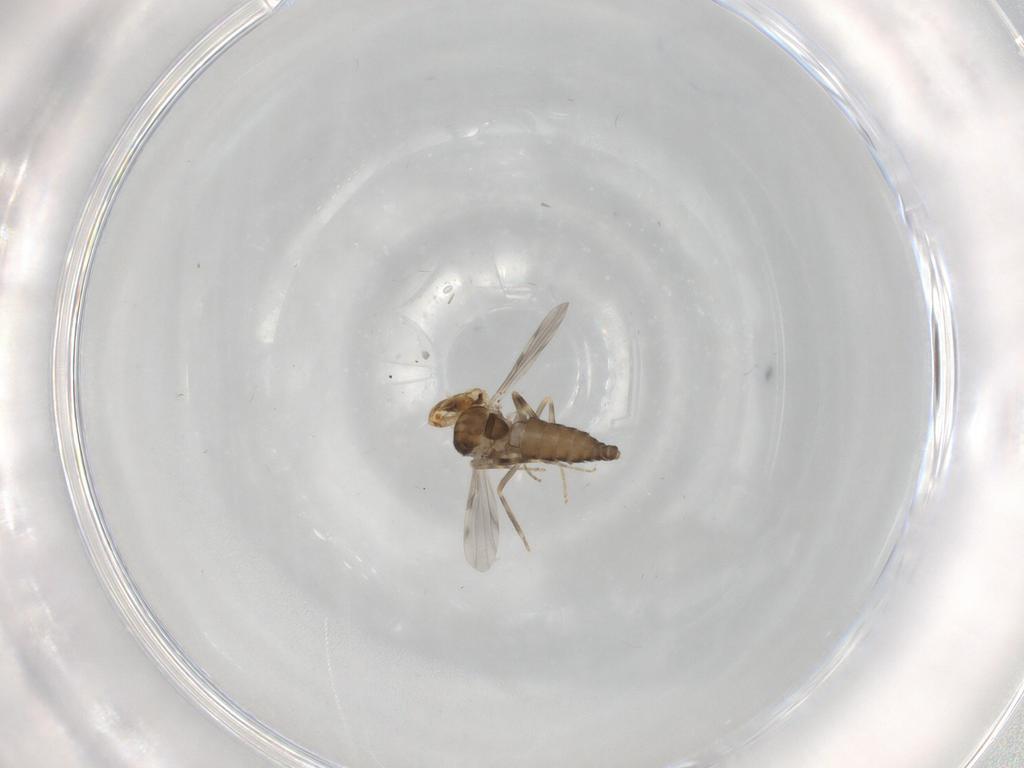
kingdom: Animalia
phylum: Arthropoda
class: Insecta
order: Diptera
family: Ceratopogonidae
